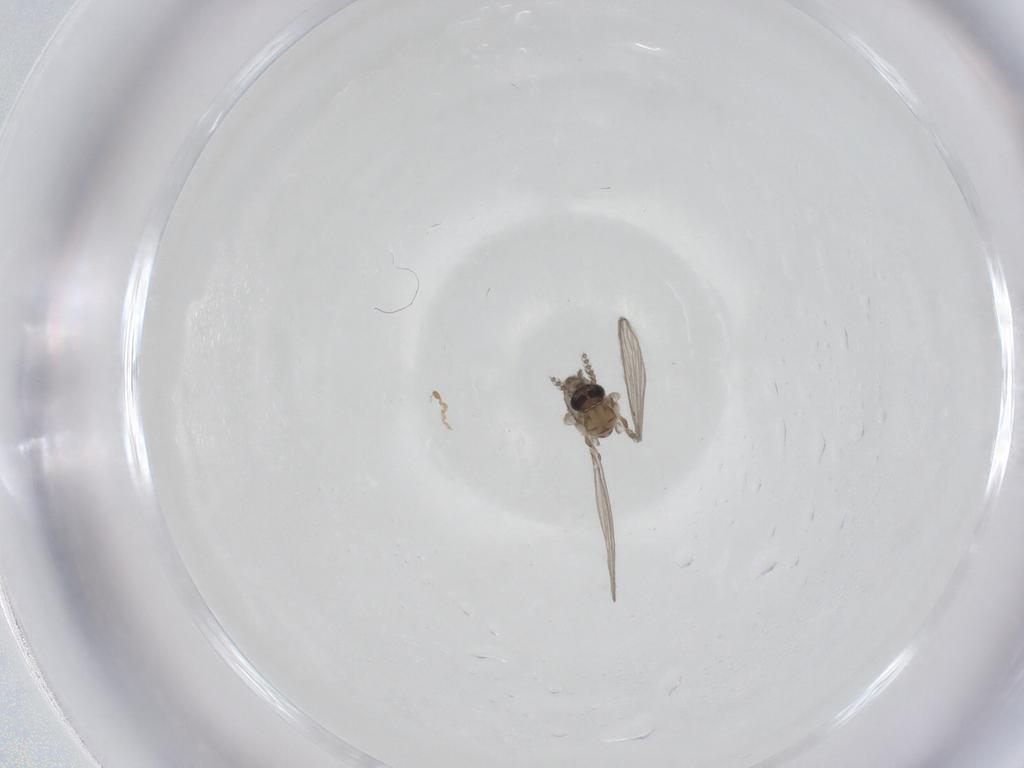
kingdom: Animalia
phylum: Arthropoda
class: Insecta
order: Diptera
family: Psychodidae
